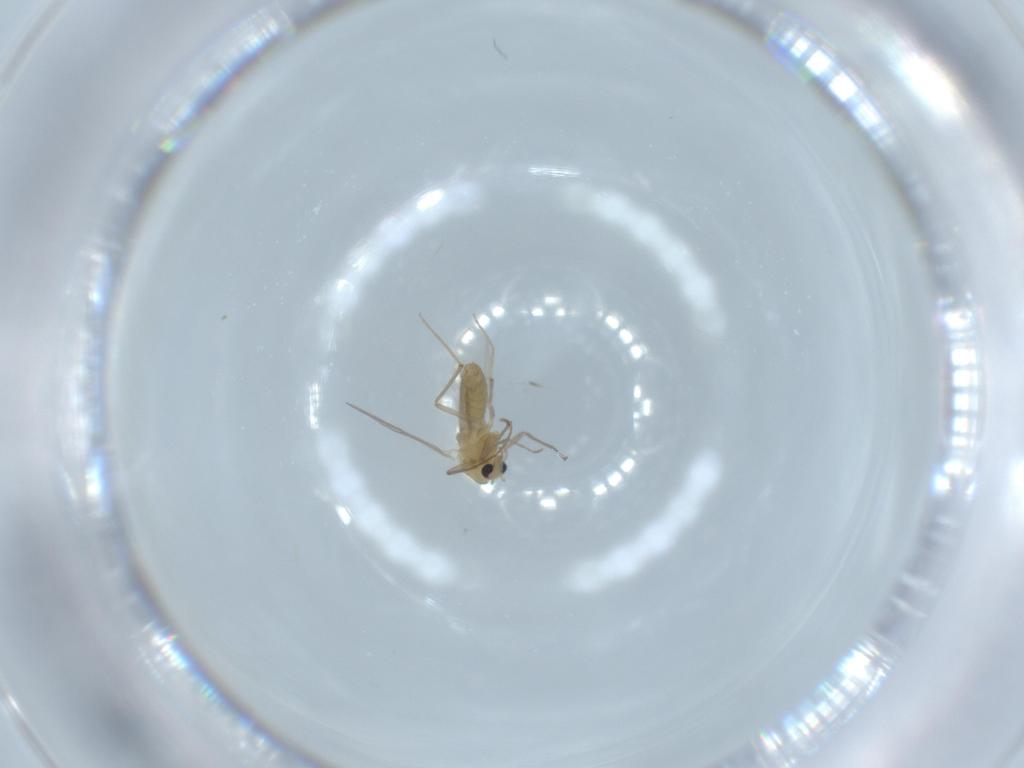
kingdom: Animalia
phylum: Arthropoda
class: Insecta
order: Diptera
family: Chironomidae
